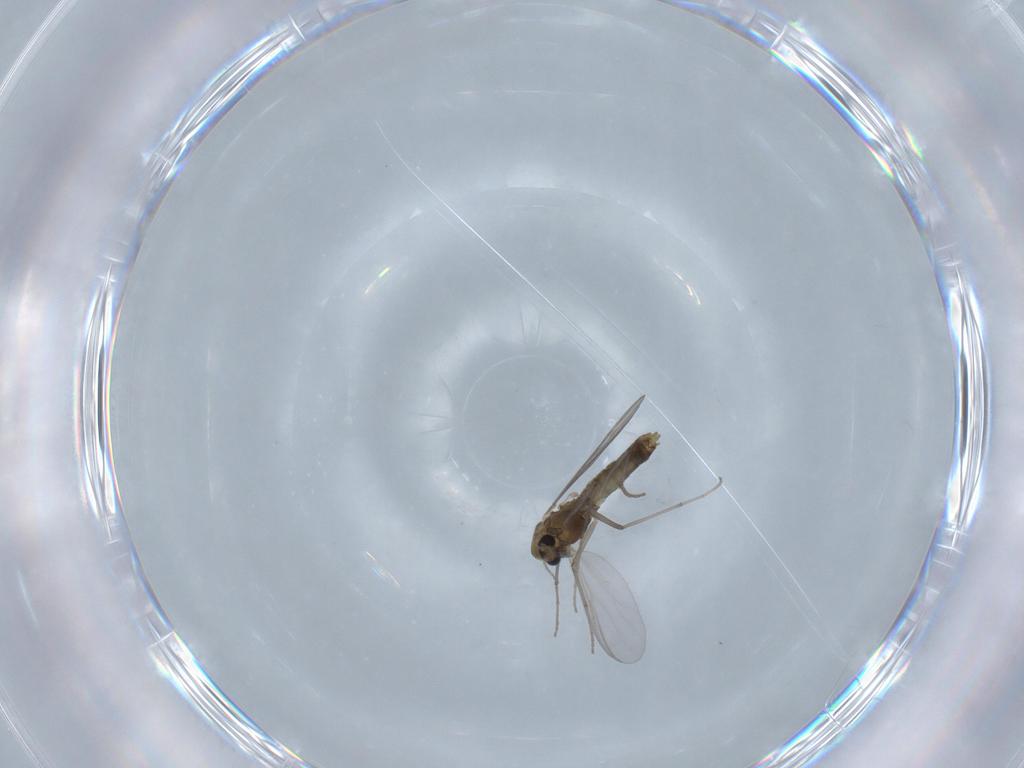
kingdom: Animalia
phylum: Arthropoda
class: Insecta
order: Diptera
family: Chironomidae
